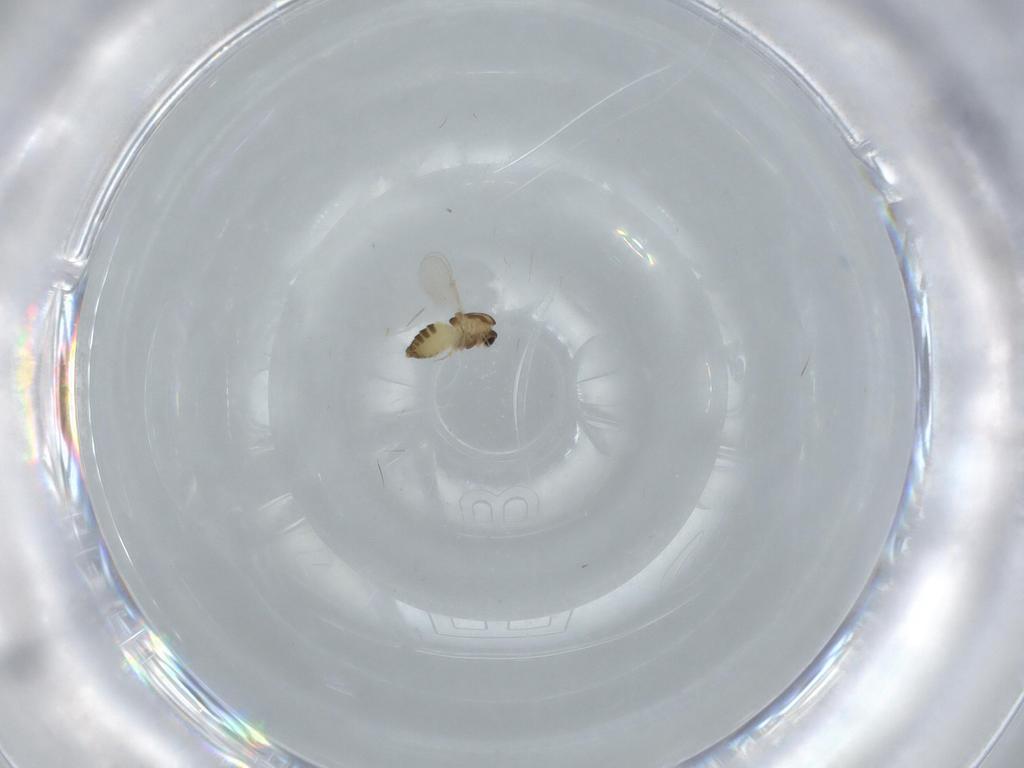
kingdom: Animalia
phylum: Arthropoda
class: Insecta
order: Diptera
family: Chironomidae
